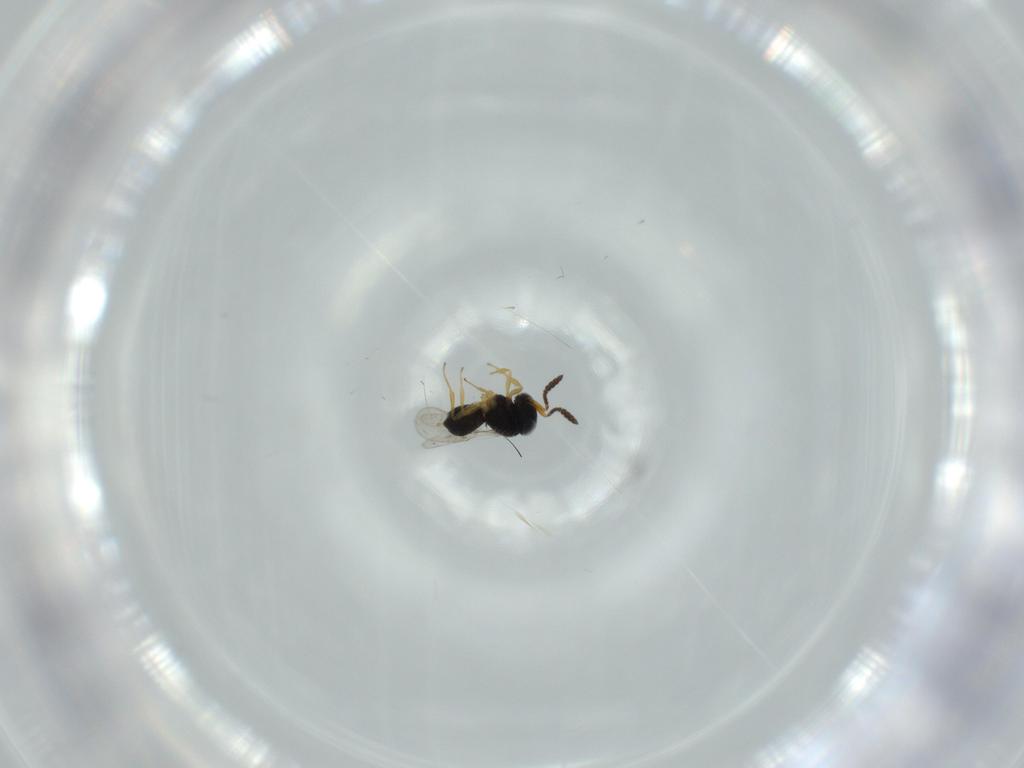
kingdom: Animalia
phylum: Arthropoda
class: Insecta
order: Hymenoptera
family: Scelionidae
